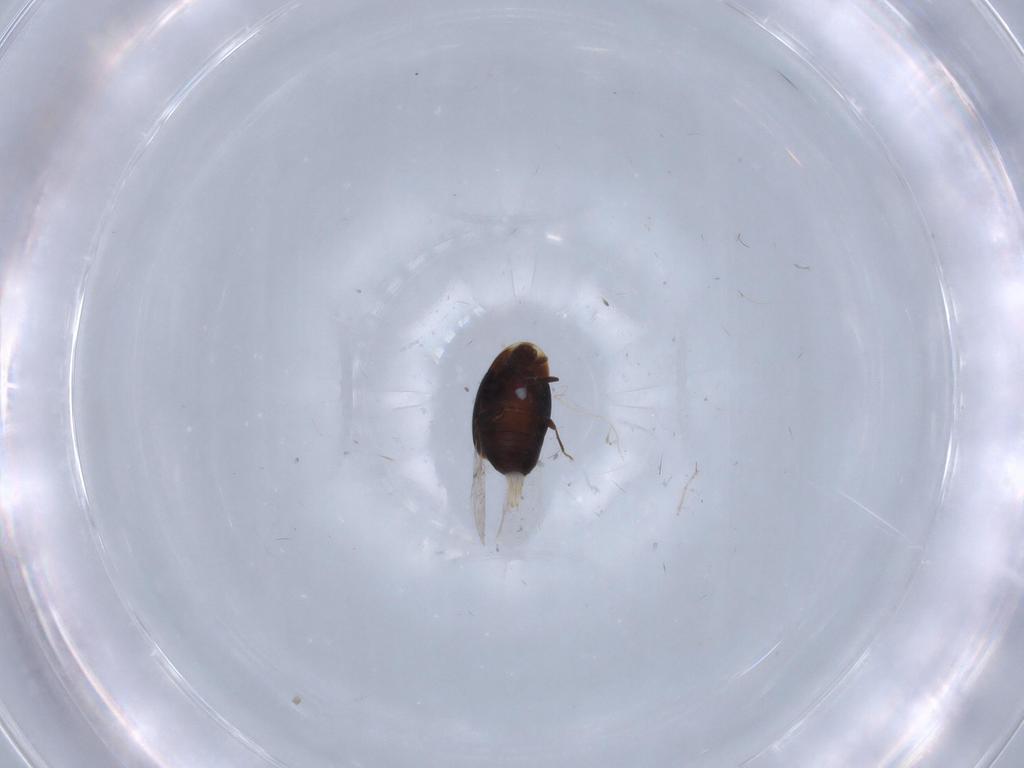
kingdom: Animalia
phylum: Arthropoda
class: Insecta
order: Coleoptera
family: Corylophidae
